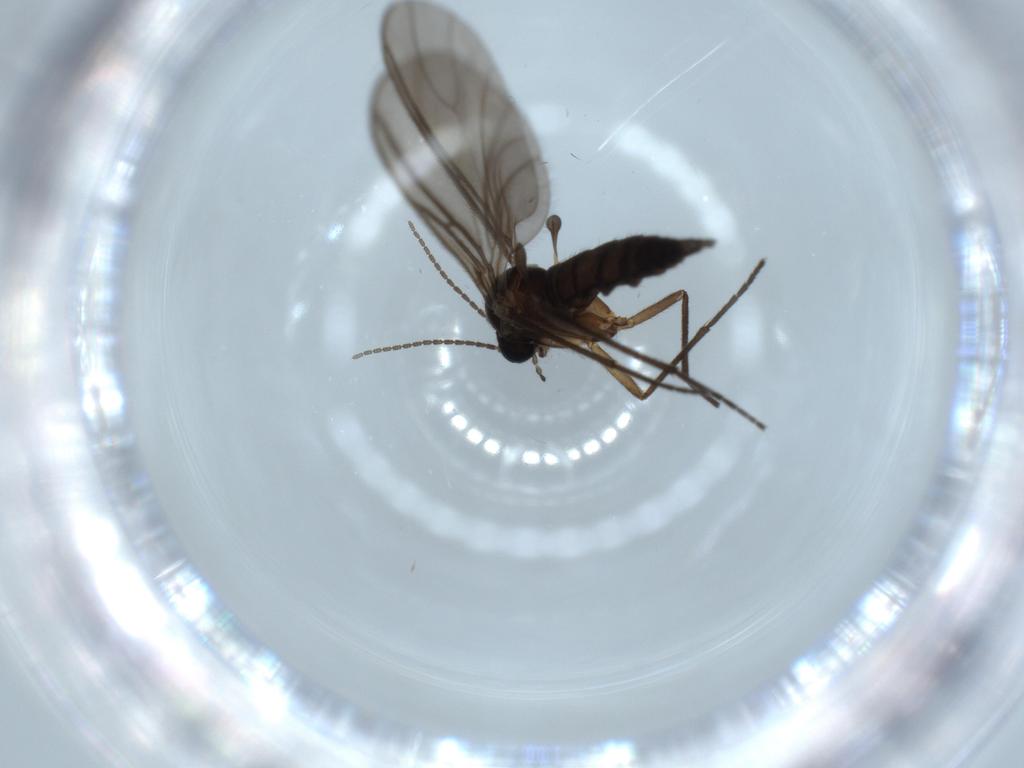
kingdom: Animalia
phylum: Arthropoda
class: Insecta
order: Diptera
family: Sciaridae
